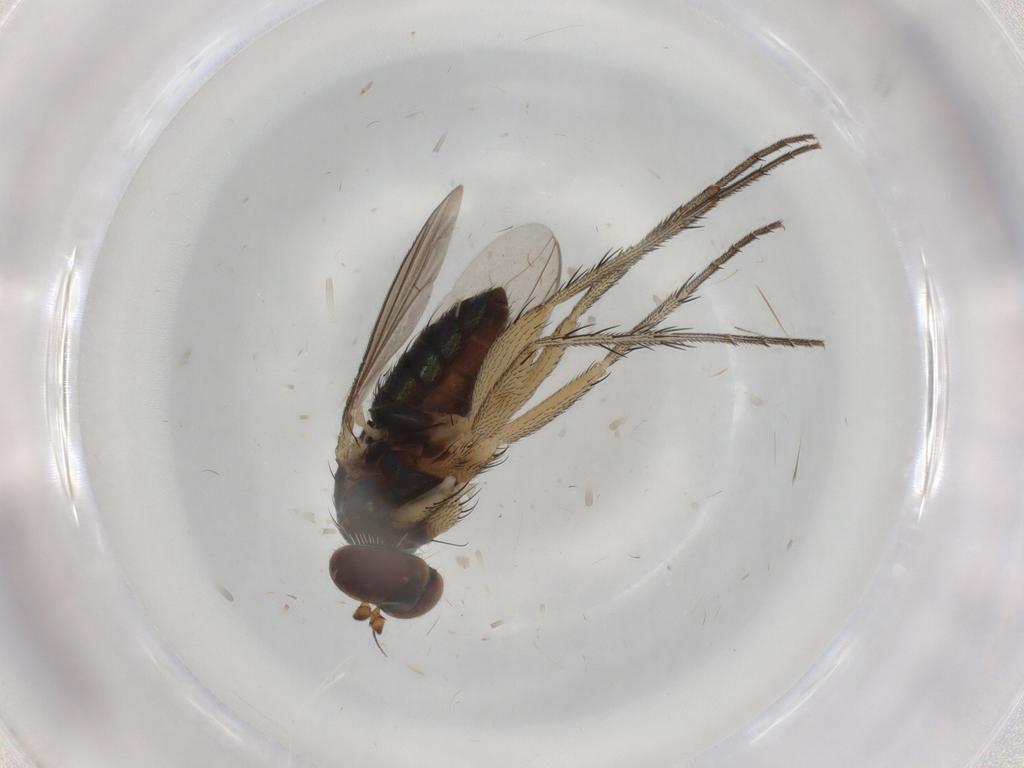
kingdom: Animalia
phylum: Arthropoda
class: Insecta
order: Diptera
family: Dolichopodidae
